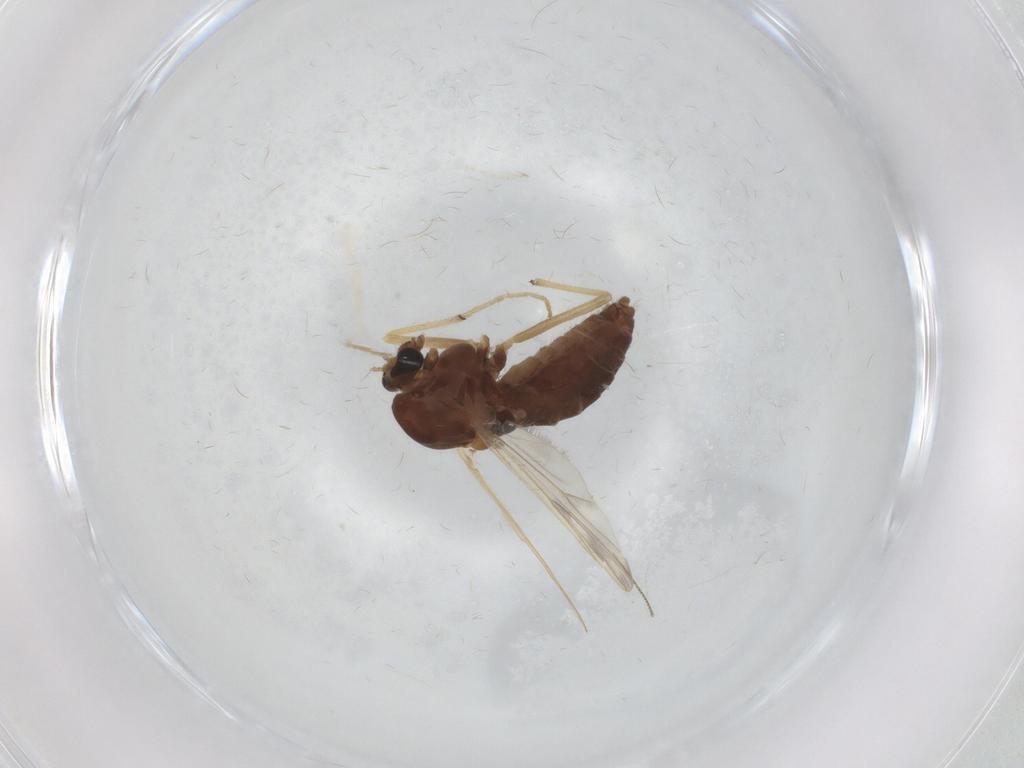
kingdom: Animalia
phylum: Arthropoda
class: Insecta
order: Diptera
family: Chironomidae
